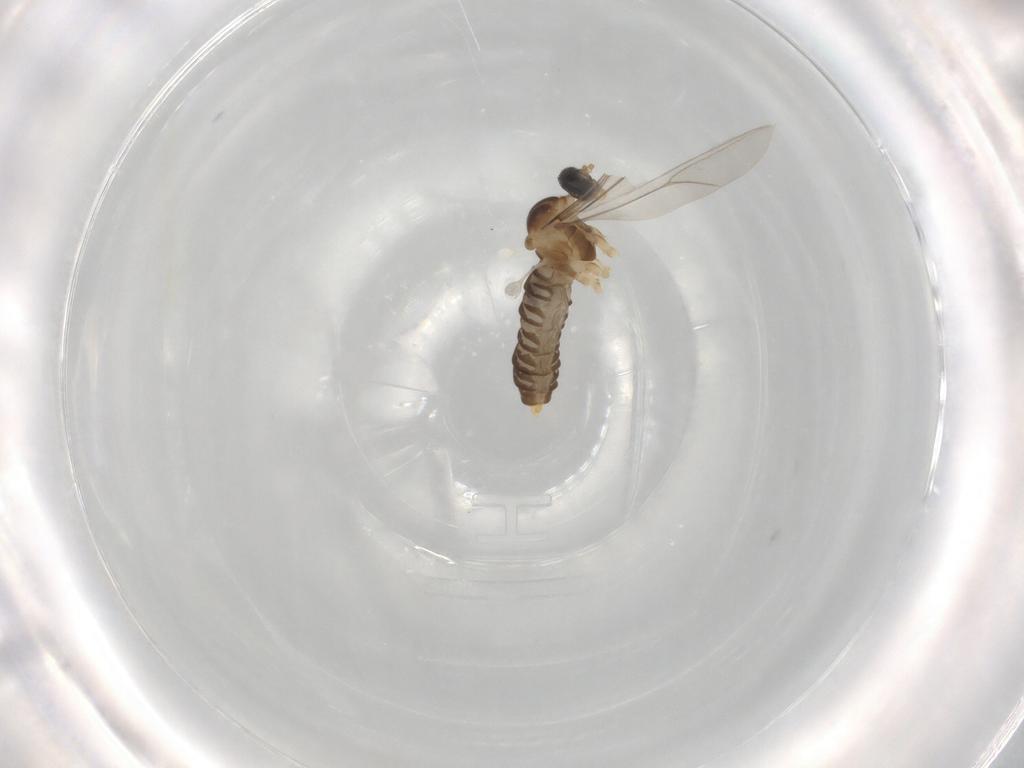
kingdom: Animalia
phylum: Arthropoda
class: Insecta
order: Diptera
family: Cecidomyiidae
